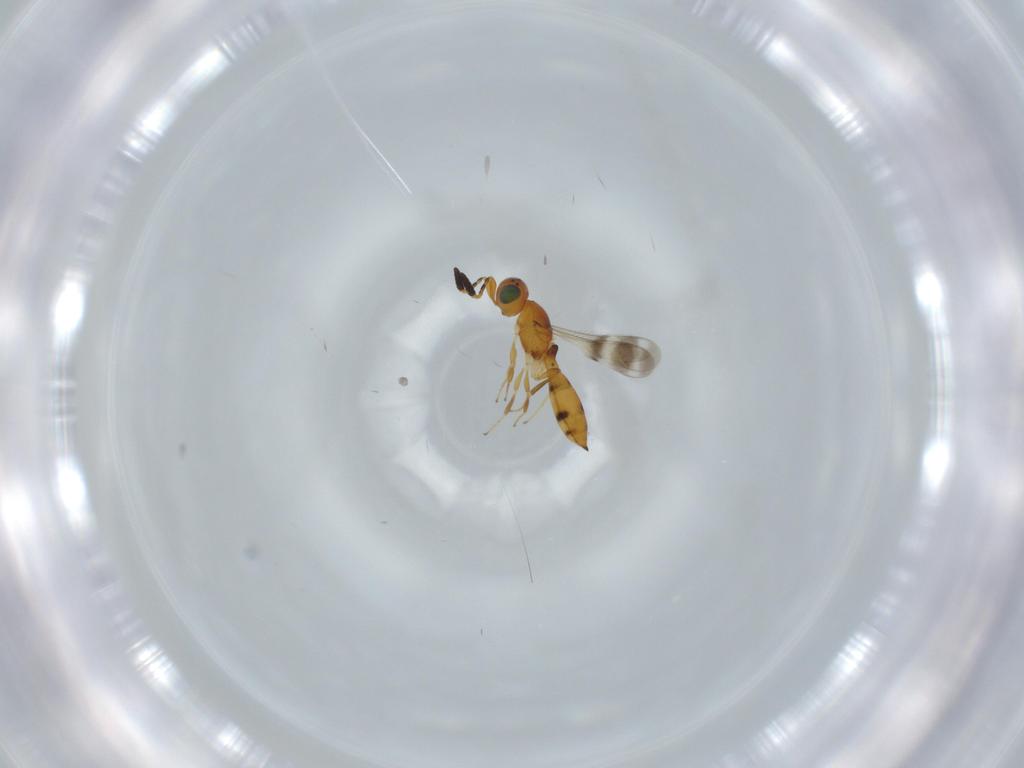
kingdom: Animalia
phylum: Arthropoda
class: Insecta
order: Hymenoptera
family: Scelionidae
